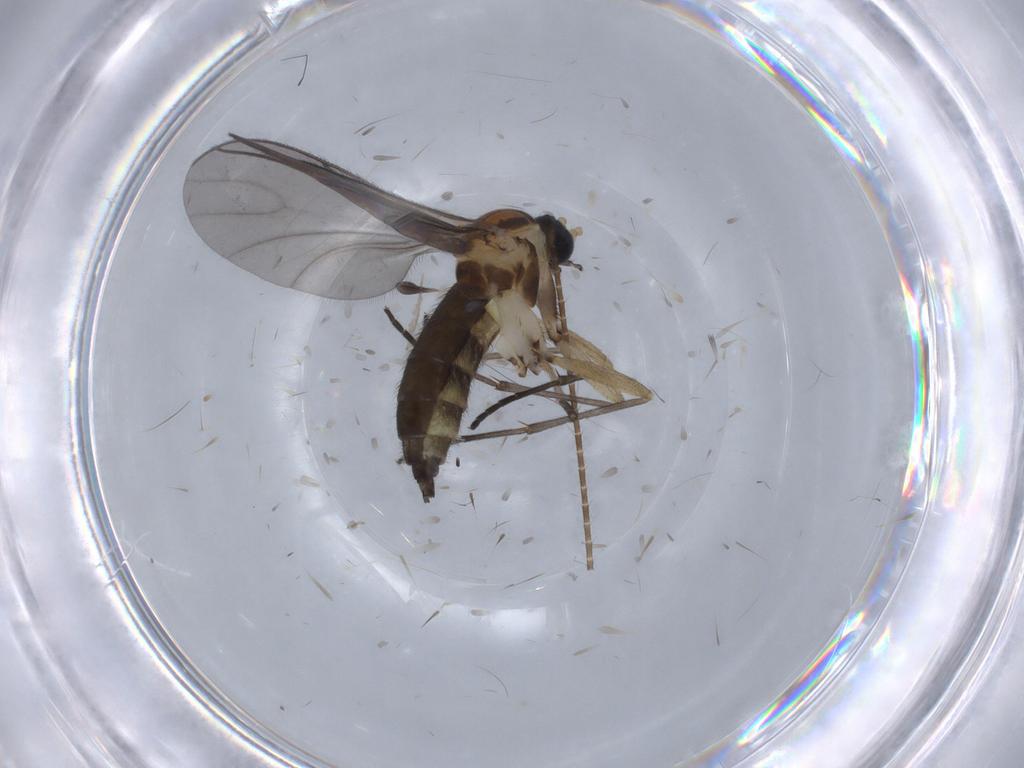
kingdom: Animalia
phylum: Arthropoda
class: Insecta
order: Diptera
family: Sciaridae
